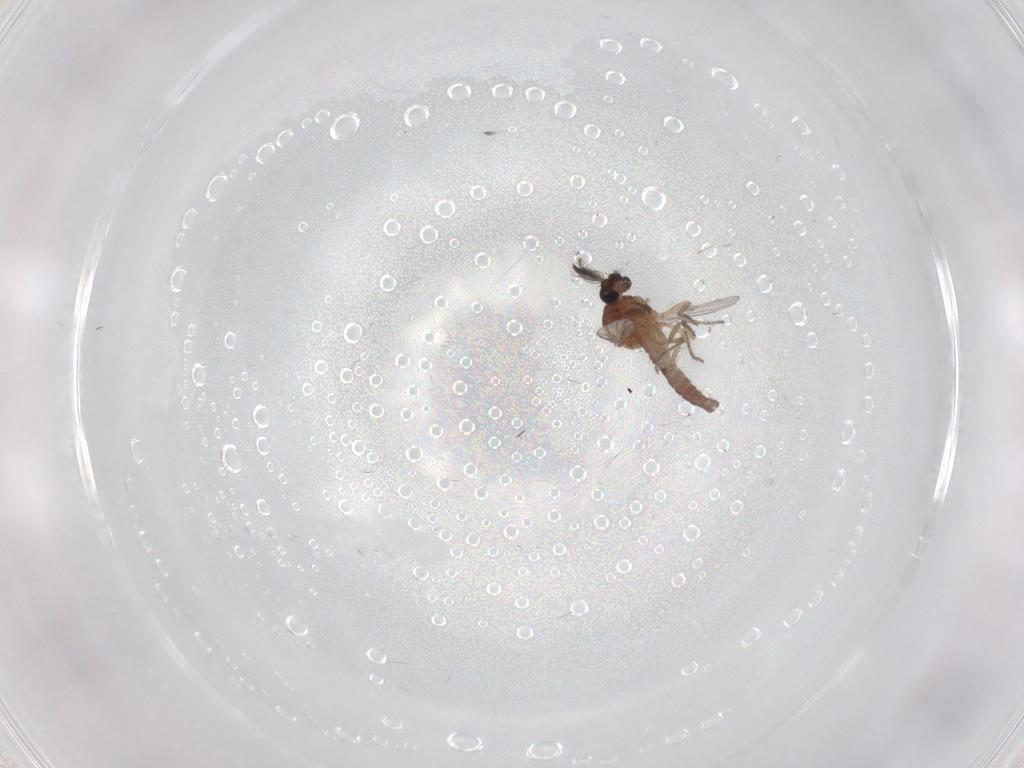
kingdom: Animalia
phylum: Arthropoda
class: Insecta
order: Diptera
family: Ceratopogonidae
